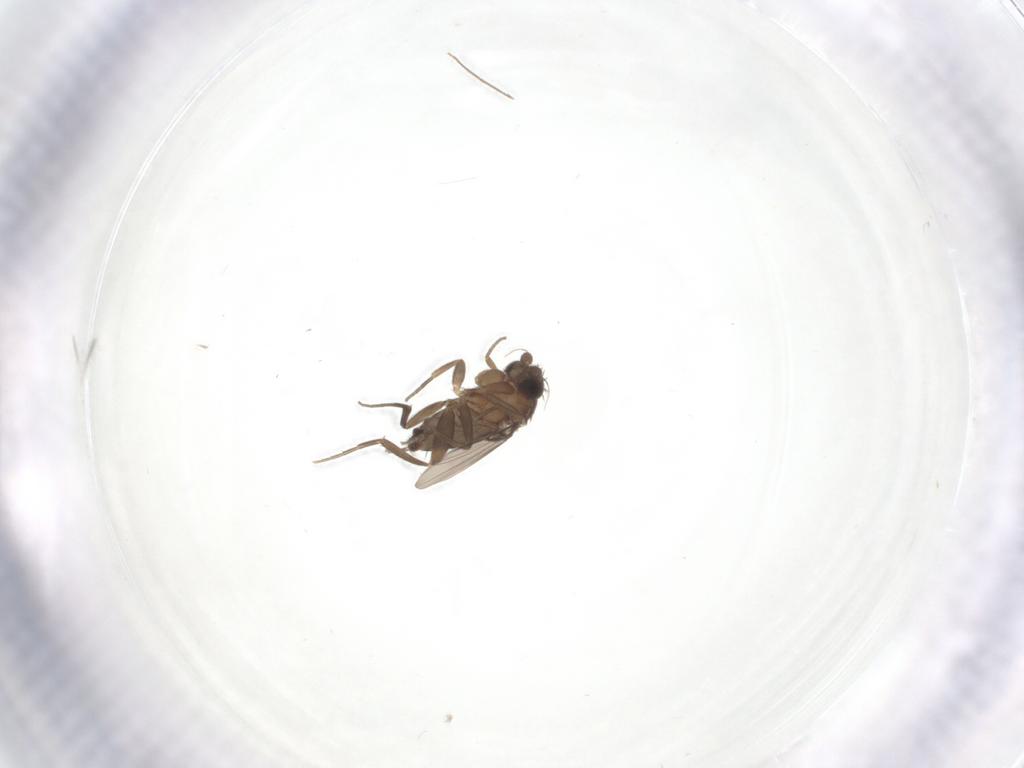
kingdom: Animalia
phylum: Arthropoda
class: Insecta
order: Diptera
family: Phoridae
